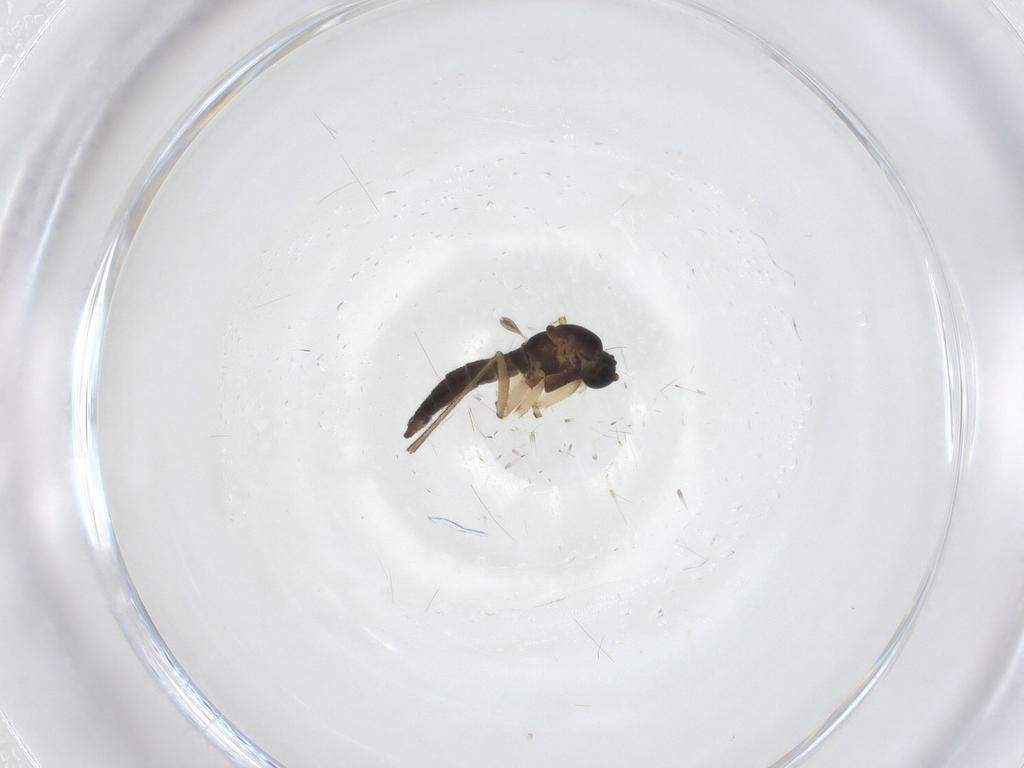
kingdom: Animalia
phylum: Arthropoda
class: Insecta
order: Diptera
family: Sciaridae
